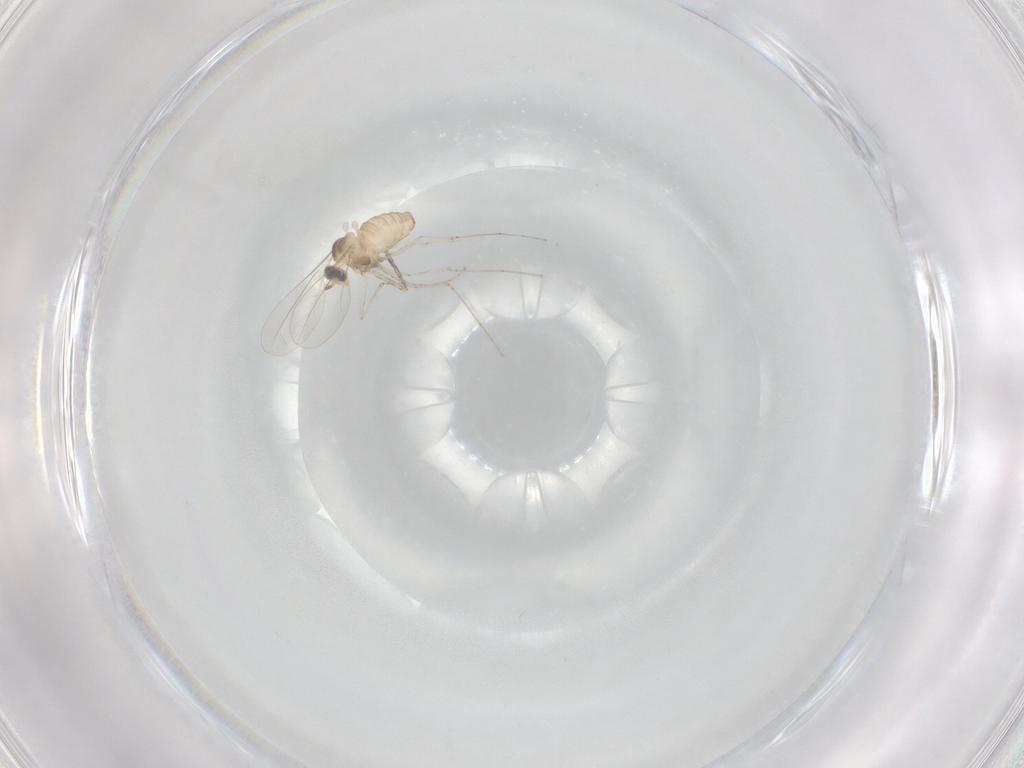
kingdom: Animalia
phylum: Arthropoda
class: Insecta
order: Diptera
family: Cecidomyiidae
